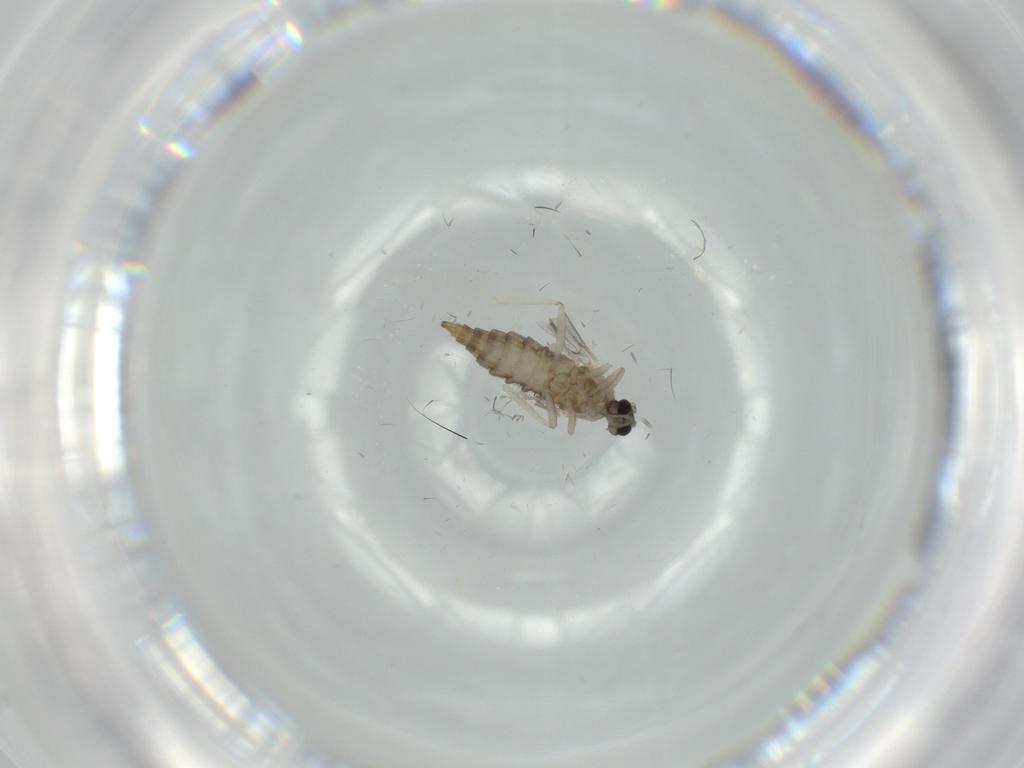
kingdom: Animalia
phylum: Arthropoda
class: Insecta
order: Diptera
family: Cecidomyiidae
